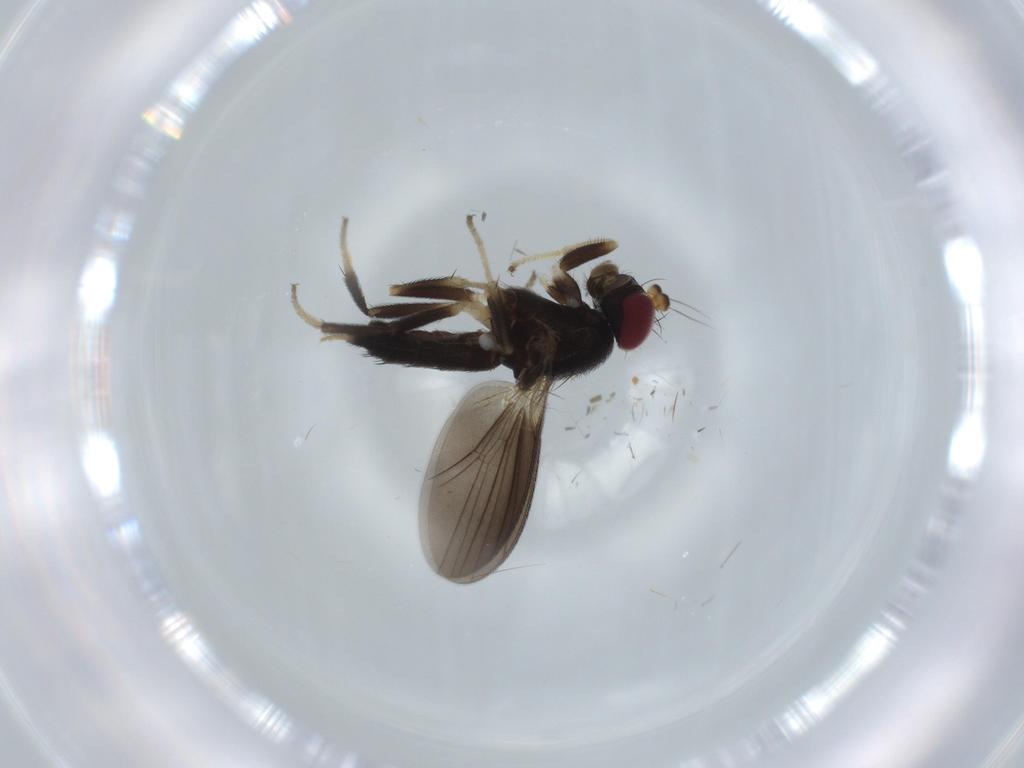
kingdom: Animalia
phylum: Arthropoda
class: Insecta
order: Diptera
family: Clusiidae
